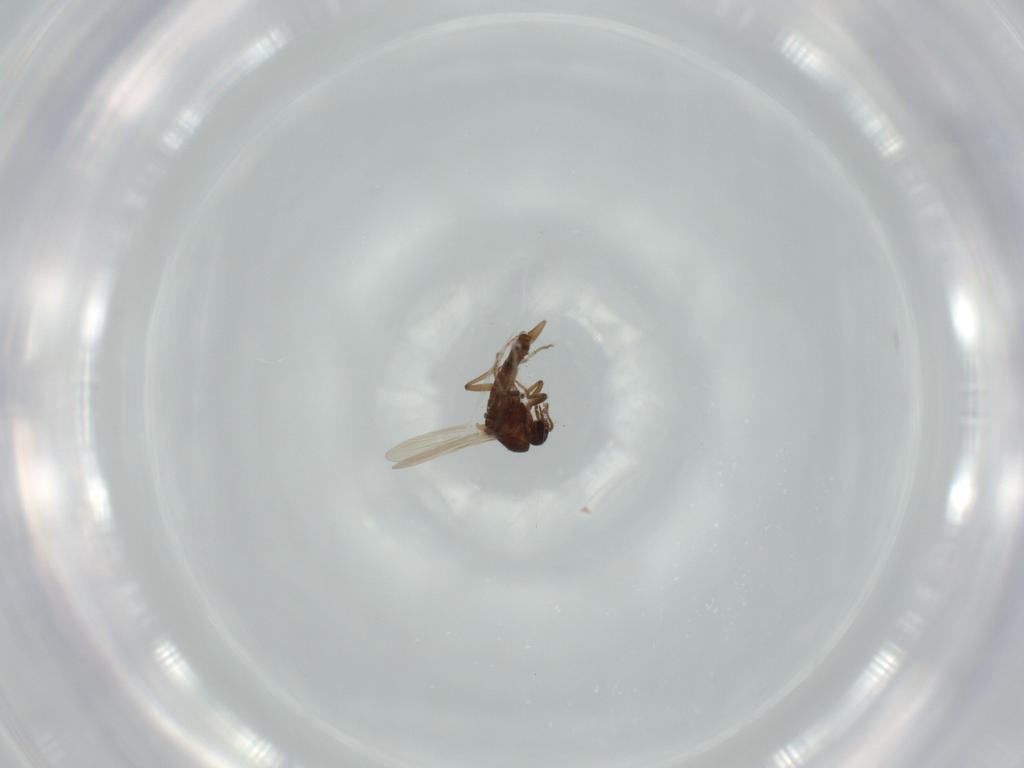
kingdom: Animalia
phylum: Arthropoda
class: Insecta
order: Diptera
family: Ceratopogonidae
